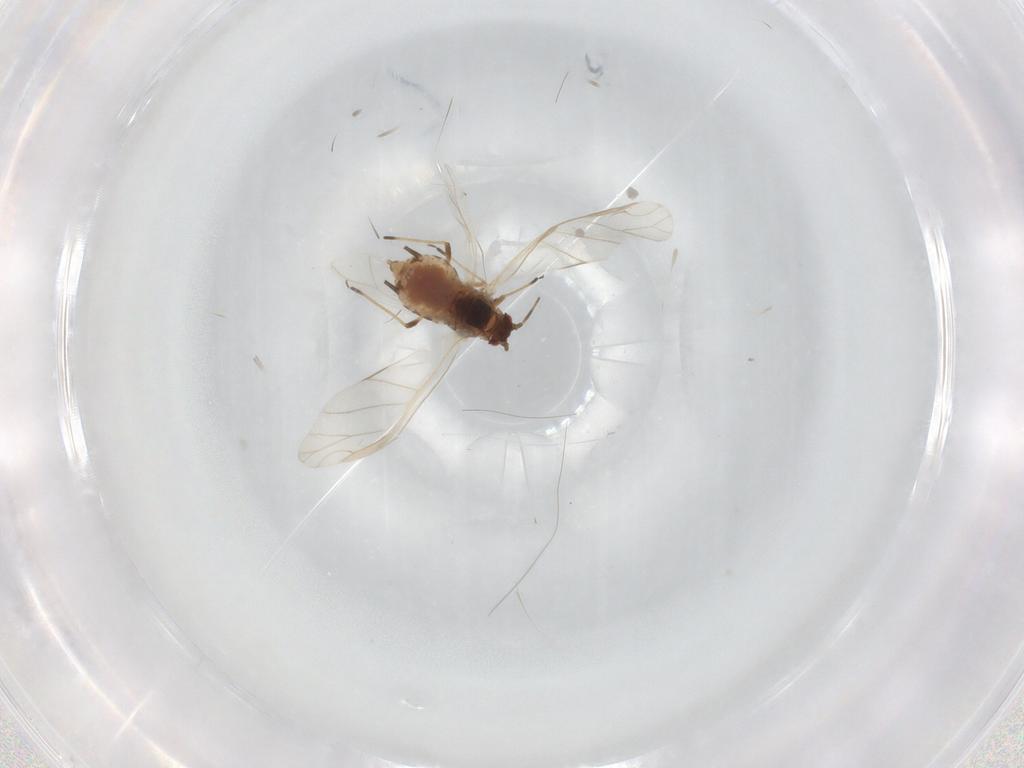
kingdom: Animalia
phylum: Arthropoda
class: Insecta
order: Hemiptera
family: Aphididae
